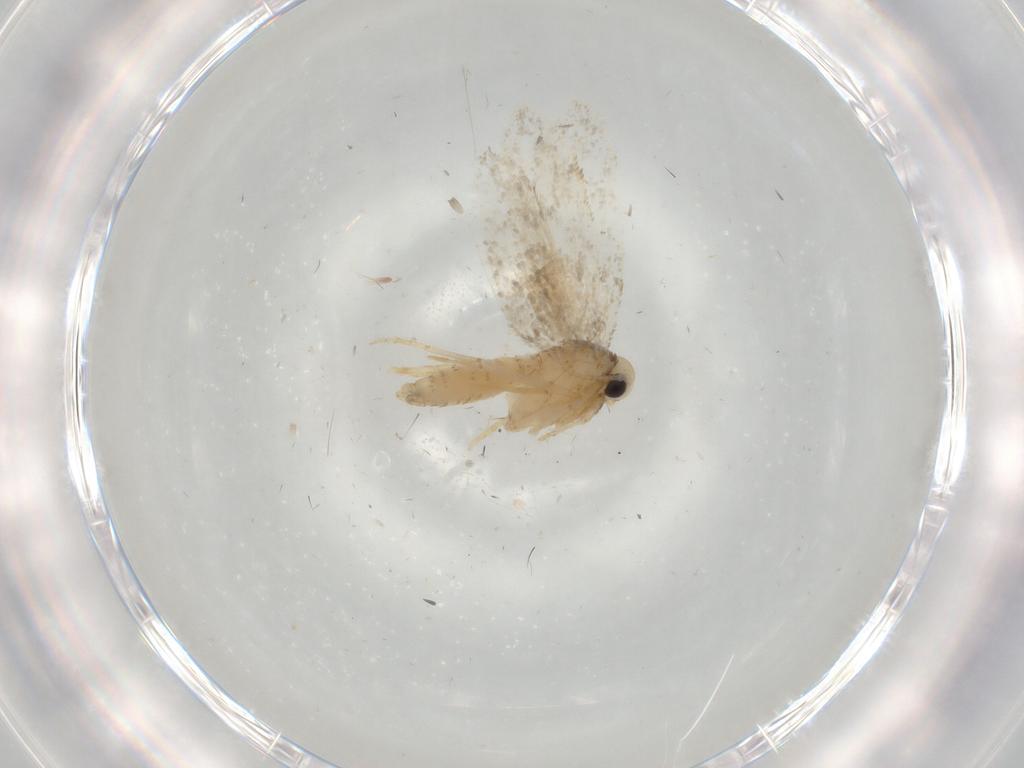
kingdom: Animalia
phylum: Arthropoda
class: Insecta
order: Lepidoptera
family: Psychidae
